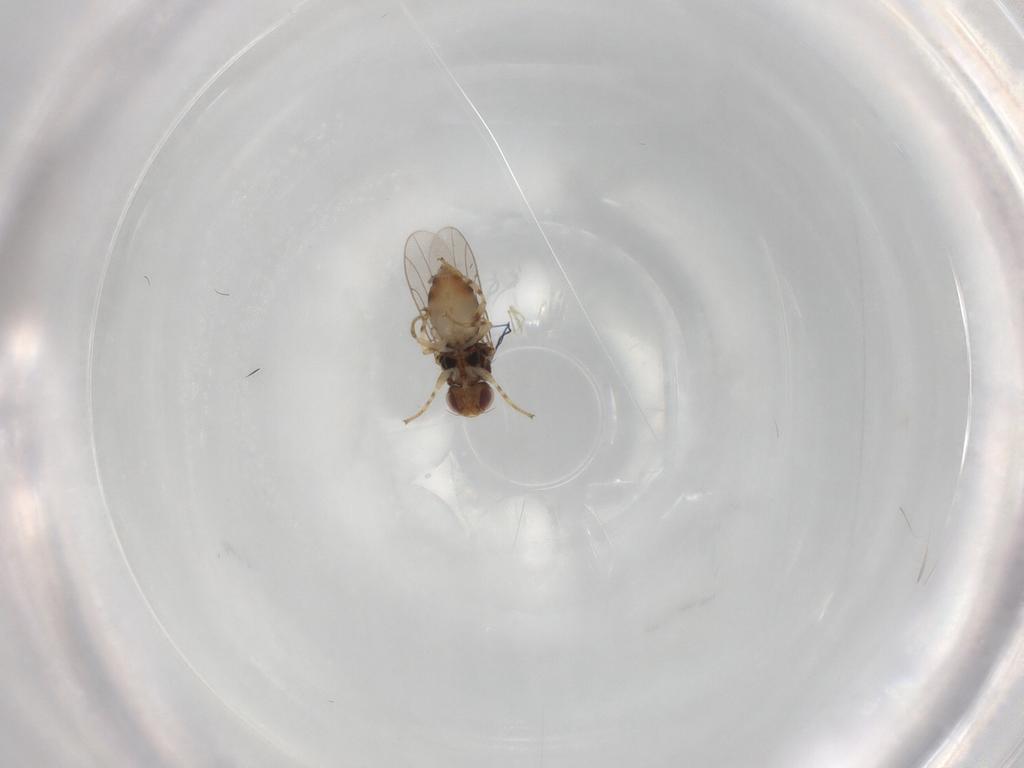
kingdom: Animalia
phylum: Arthropoda
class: Insecta
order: Diptera
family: Chloropidae
